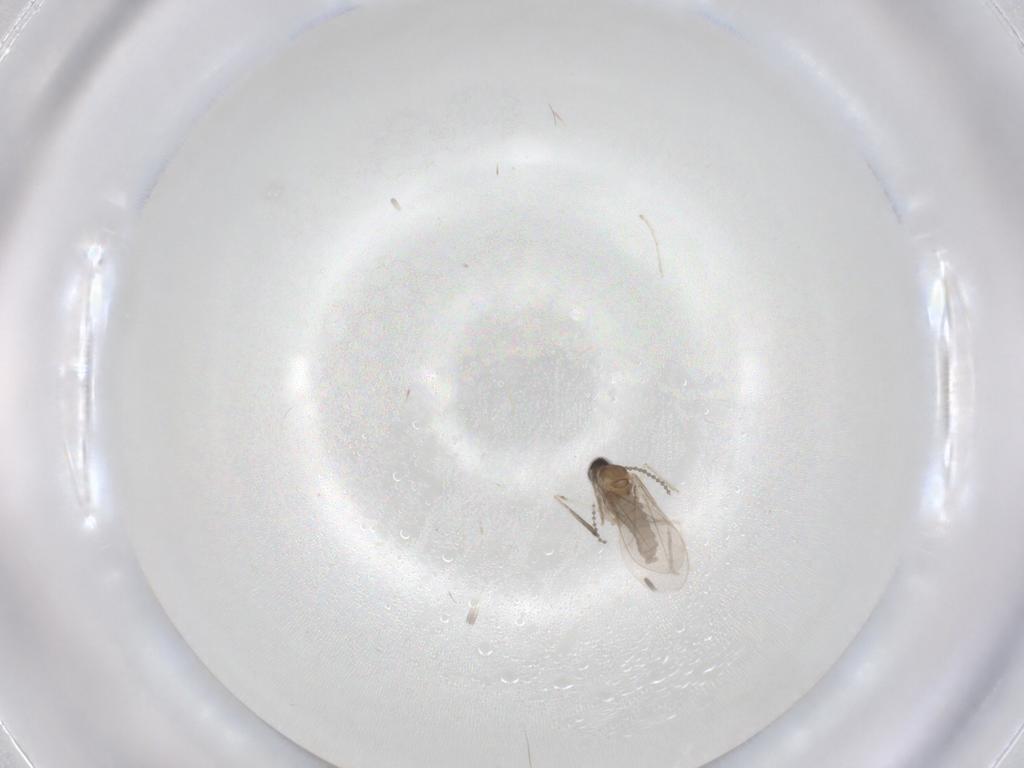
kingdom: Animalia
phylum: Arthropoda
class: Insecta
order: Diptera
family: Cecidomyiidae
